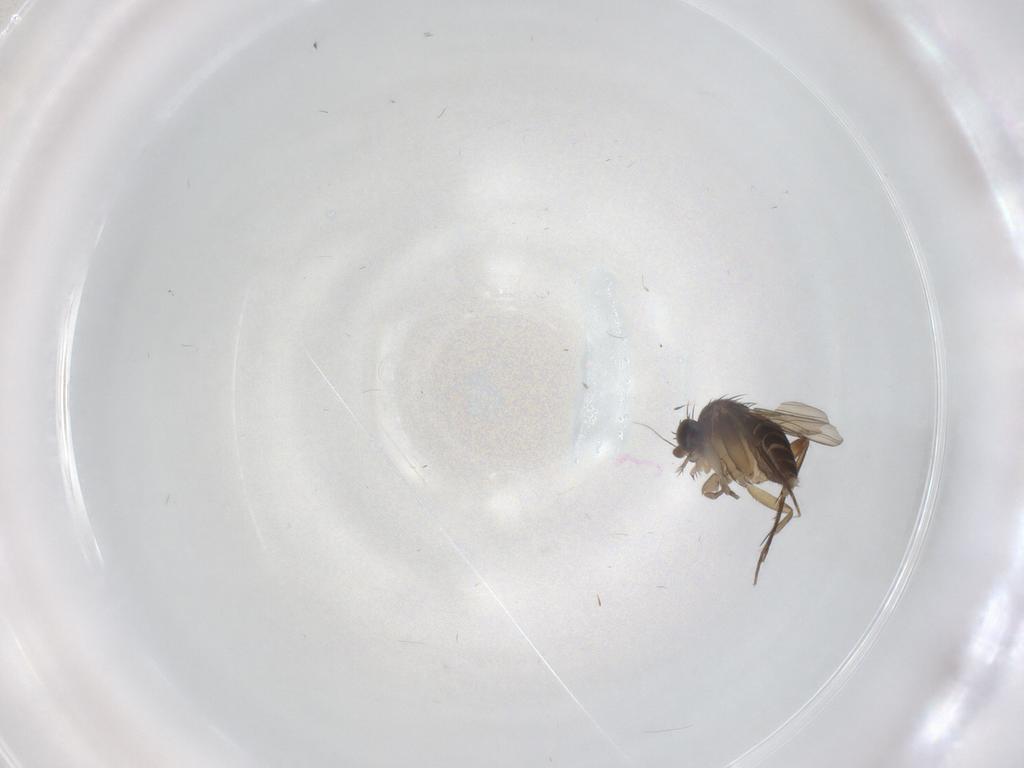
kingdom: Animalia
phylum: Arthropoda
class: Insecta
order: Diptera
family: Phoridae
